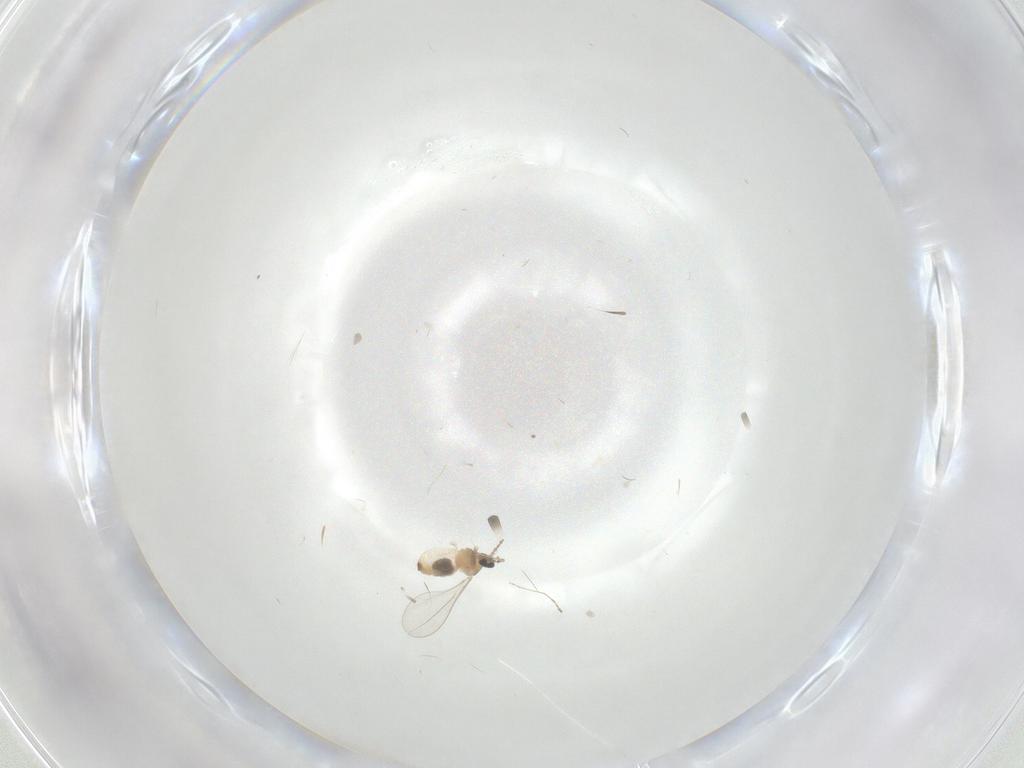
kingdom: Animalia
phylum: Arthropoda
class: Insecta
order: Diptera
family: Cecidomyiidae
